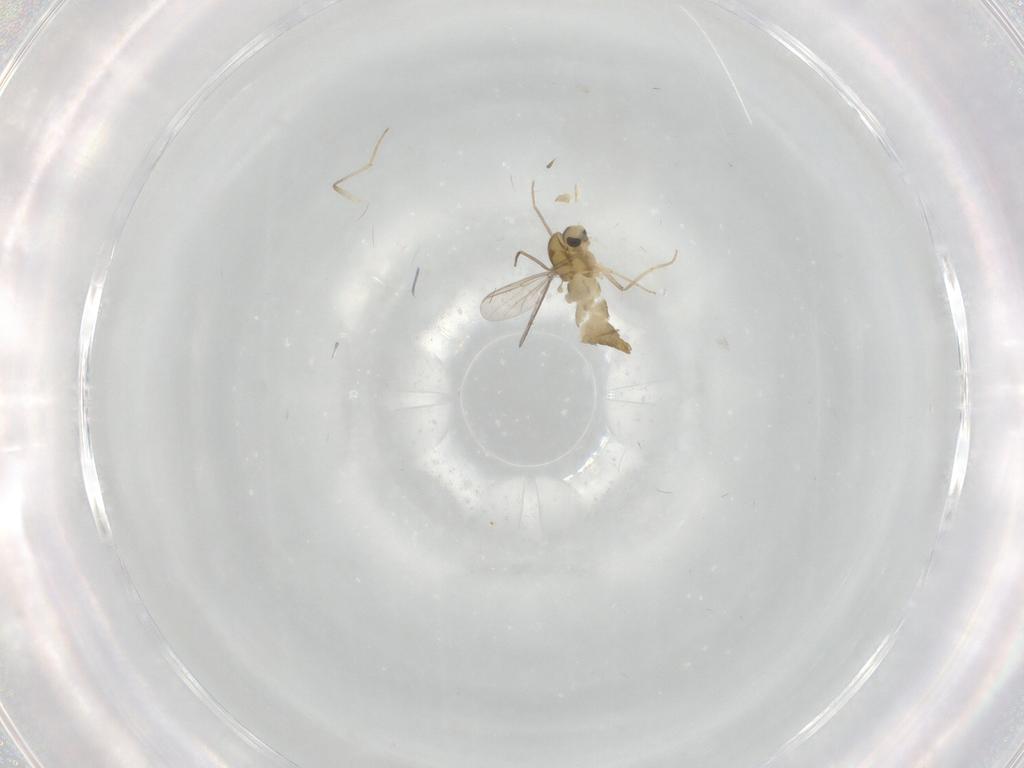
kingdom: Animalia
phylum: Arthropoda
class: Insecta
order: Diptera
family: Chironomidae
